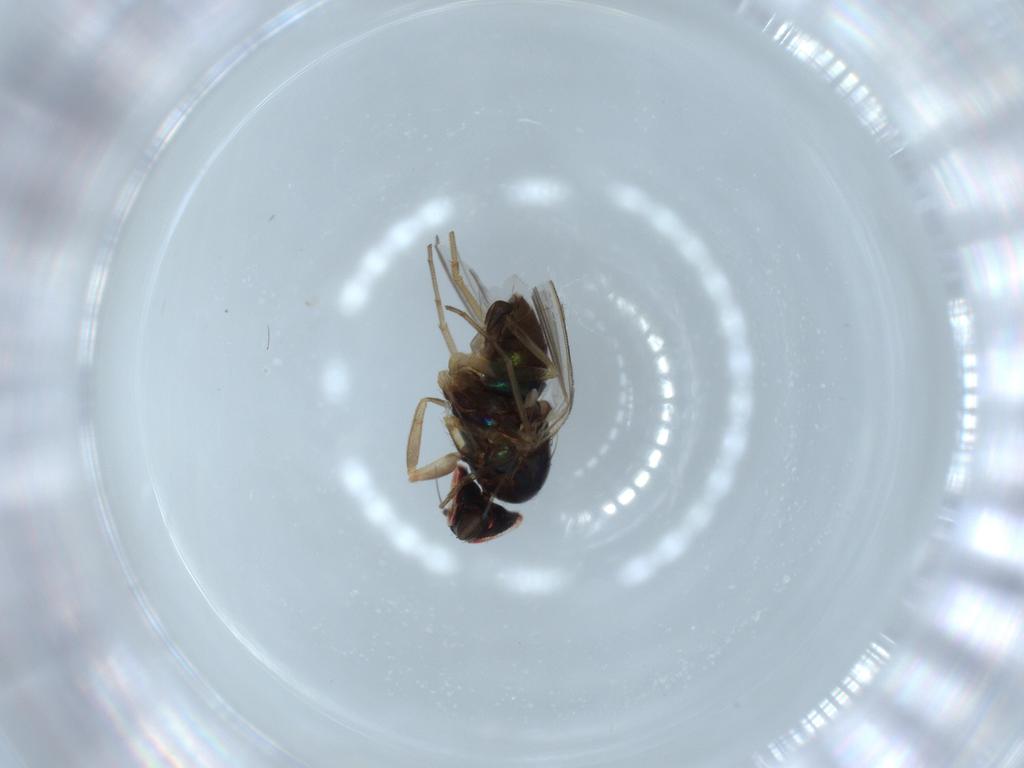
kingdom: Animalia
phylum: Arthropoda
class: Insecta
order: Diptera
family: Dolichopodidae
